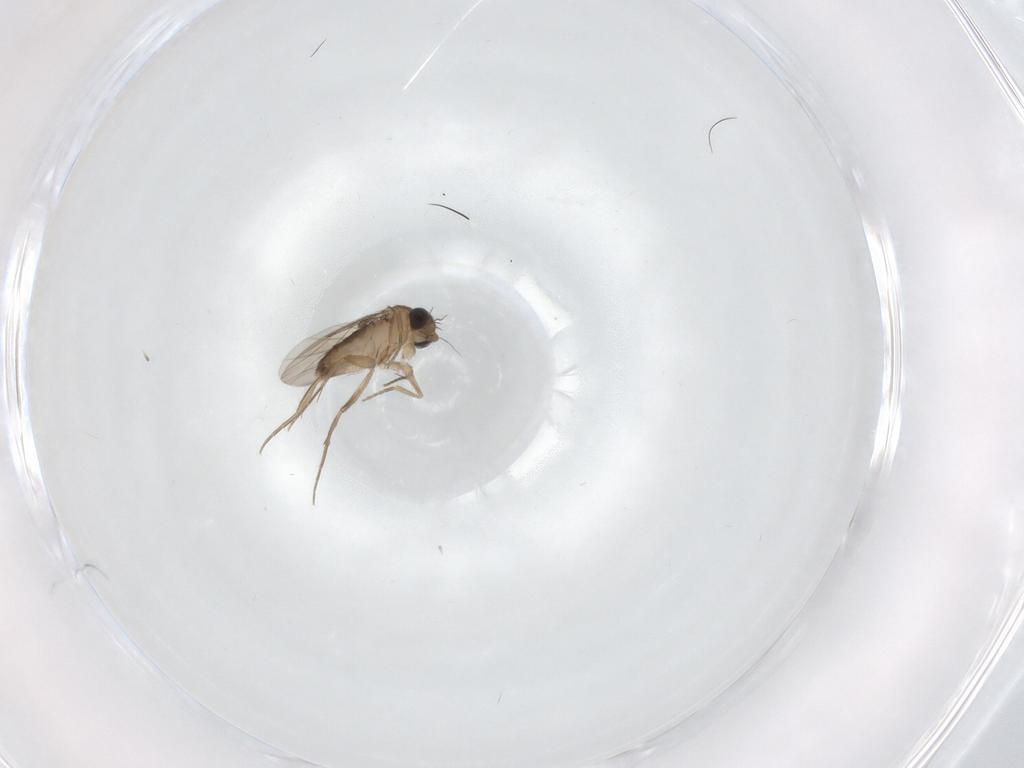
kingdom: Animalia
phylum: Arthropoda
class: Insecta
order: Diptera
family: Phoridae
